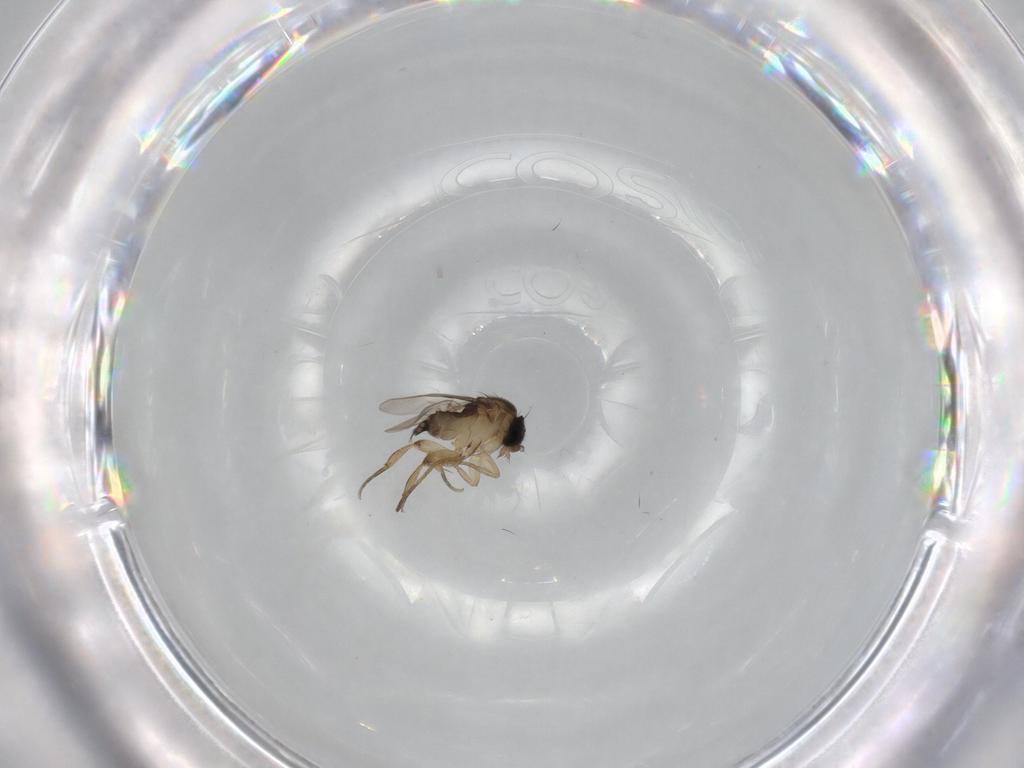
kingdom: Animalia
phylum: Arthropoda
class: Insecta
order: Diptera
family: Phoridae
